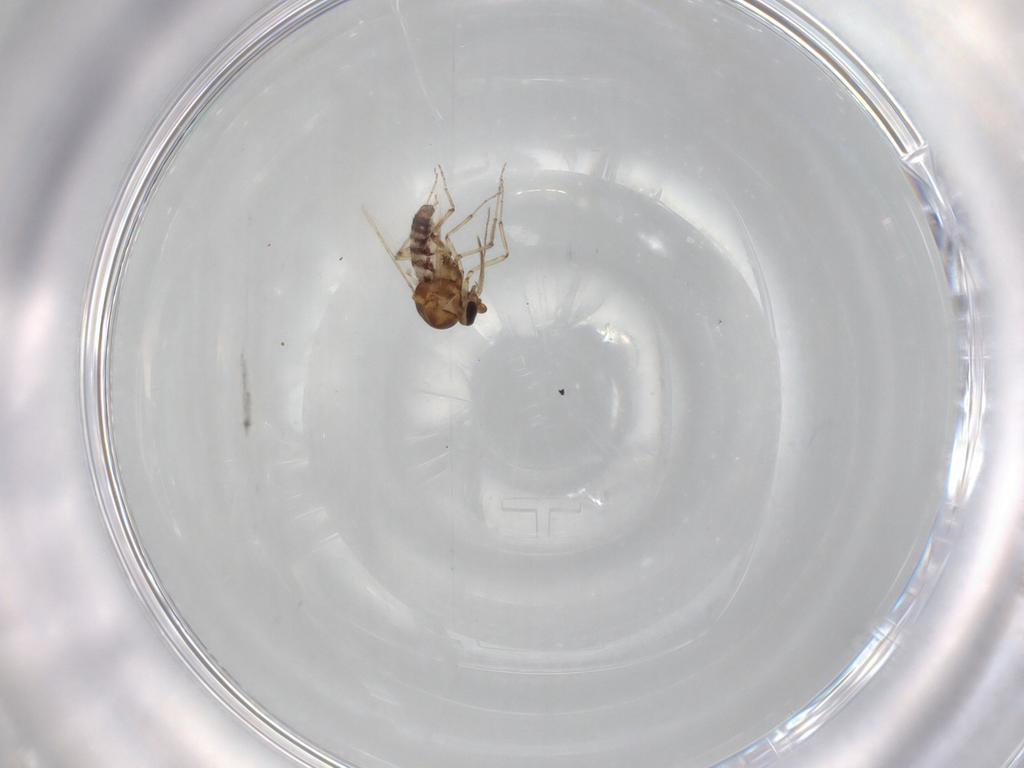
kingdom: Animalia
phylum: Arthropoda
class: Insecta
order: Diptera
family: Ceratopogonidae
